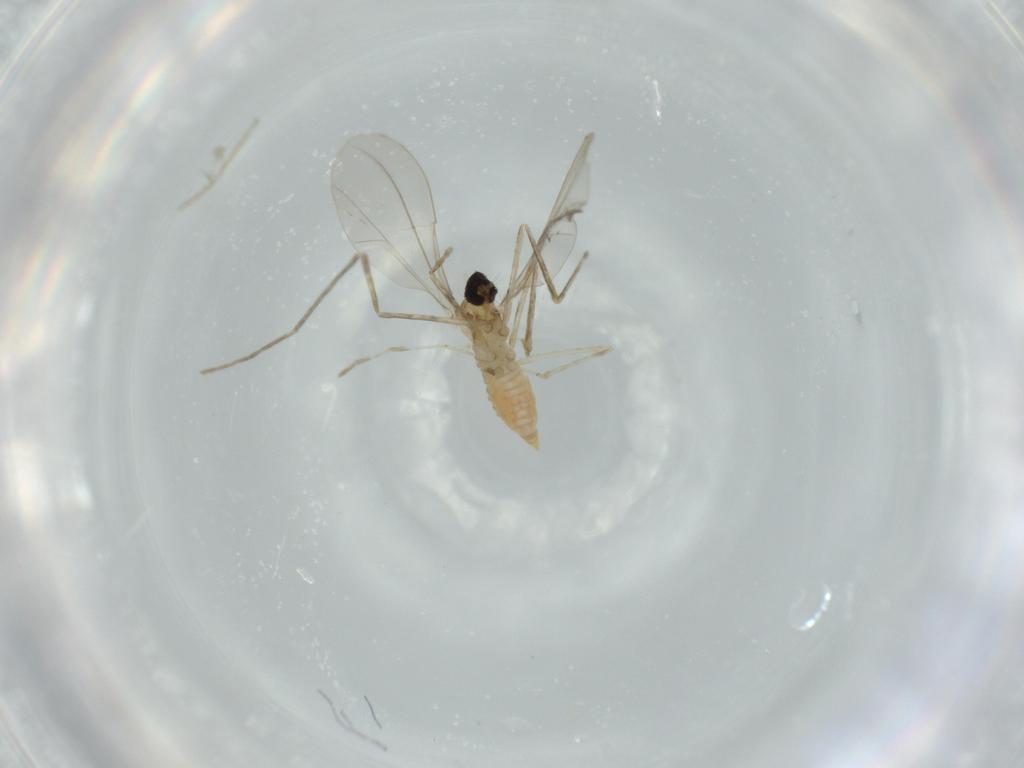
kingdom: Animalia
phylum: Arthropoda
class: Insecta
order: Diptera
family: Cecidomyiidae
